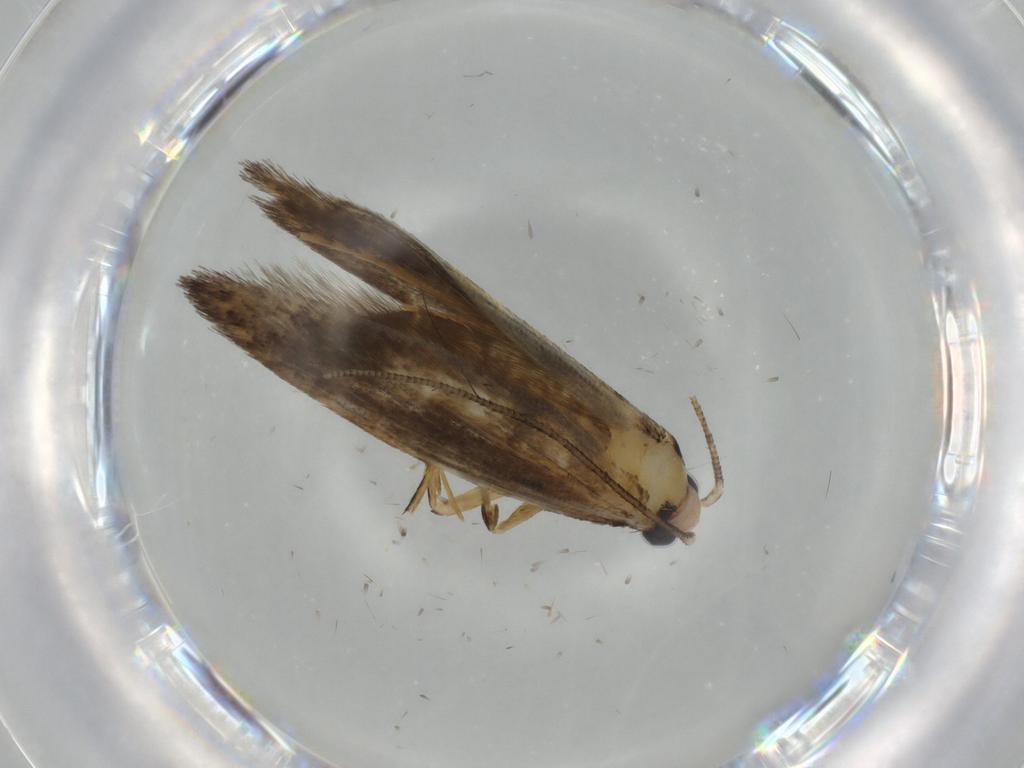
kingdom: Animalia
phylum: Arthropoda
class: Insecta
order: Lepidoptera
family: Tineidae
